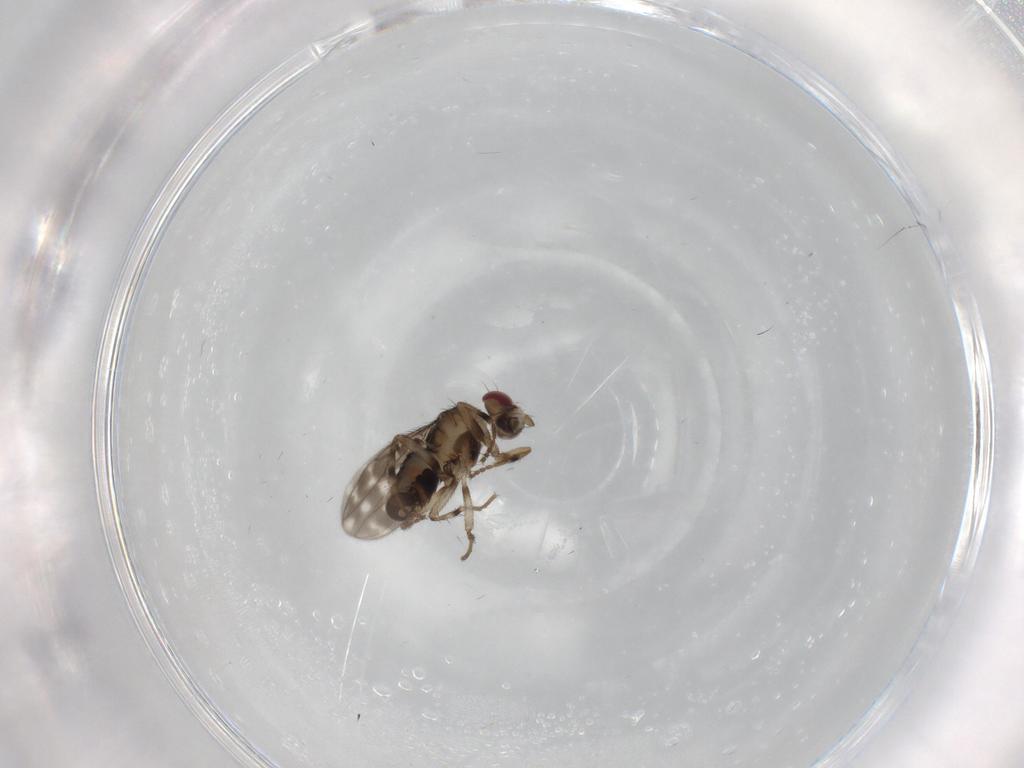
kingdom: Animalia
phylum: Arthropoda
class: Insecta
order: Diptera
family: Sphaeroceridae
